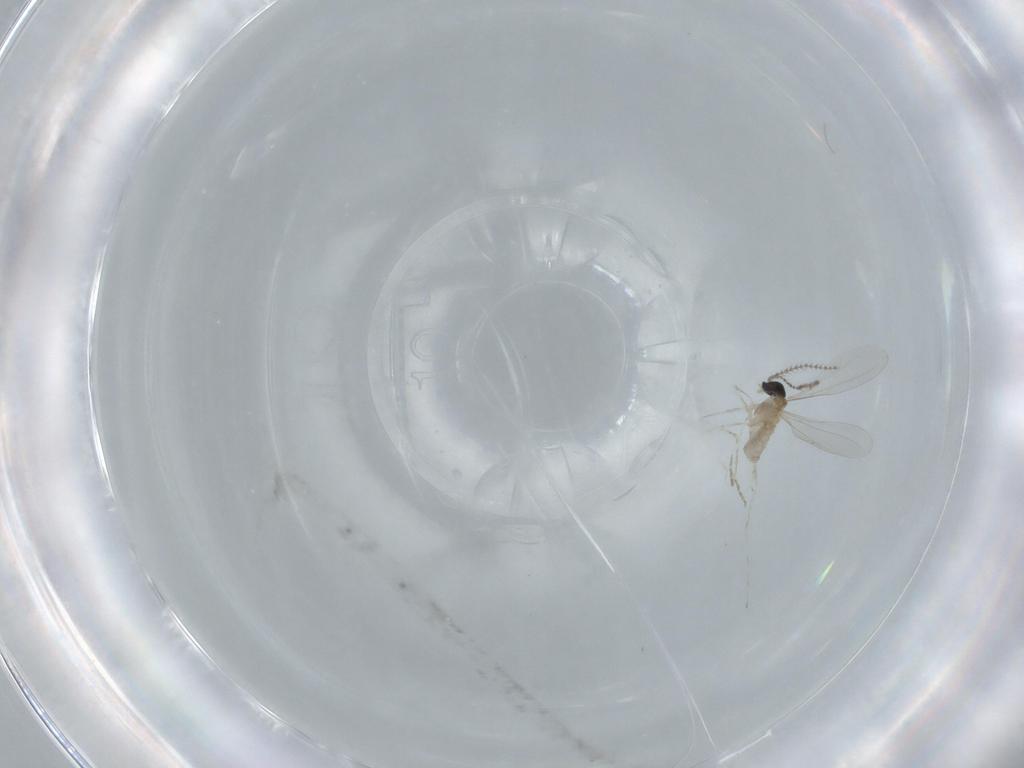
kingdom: Animalia
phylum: Arthropoda
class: Insecta
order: Diptera
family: Phoridae
